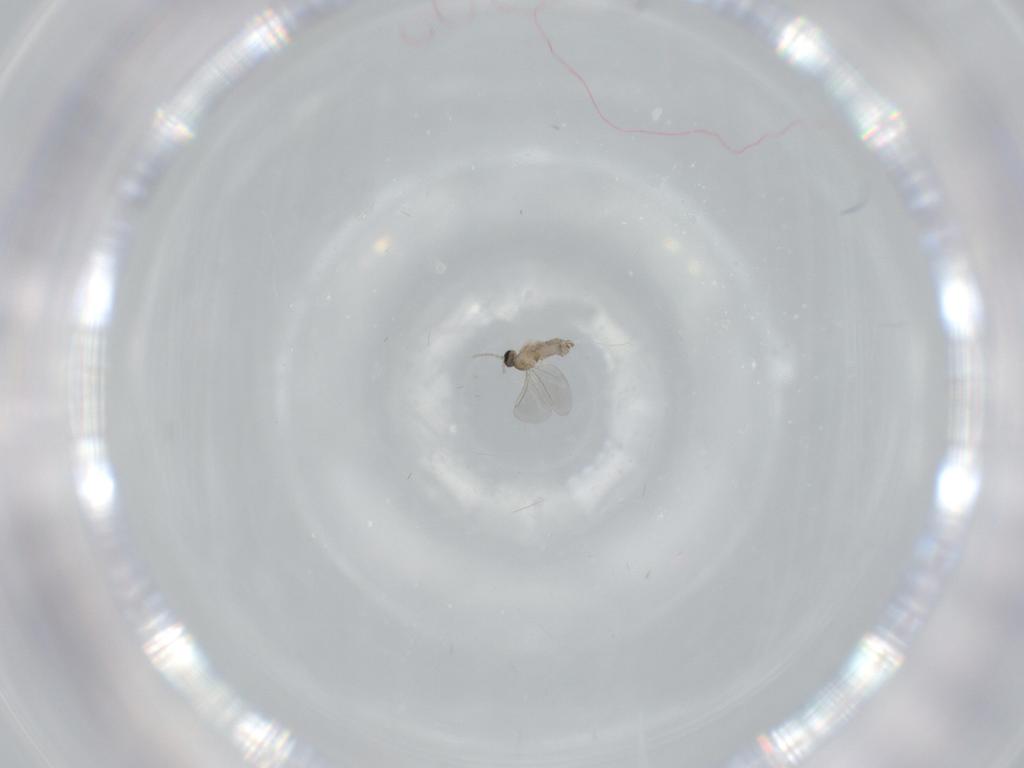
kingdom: Animalia
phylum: Arthropoda
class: Insecta
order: Diptera
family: Cecidomyiidae
